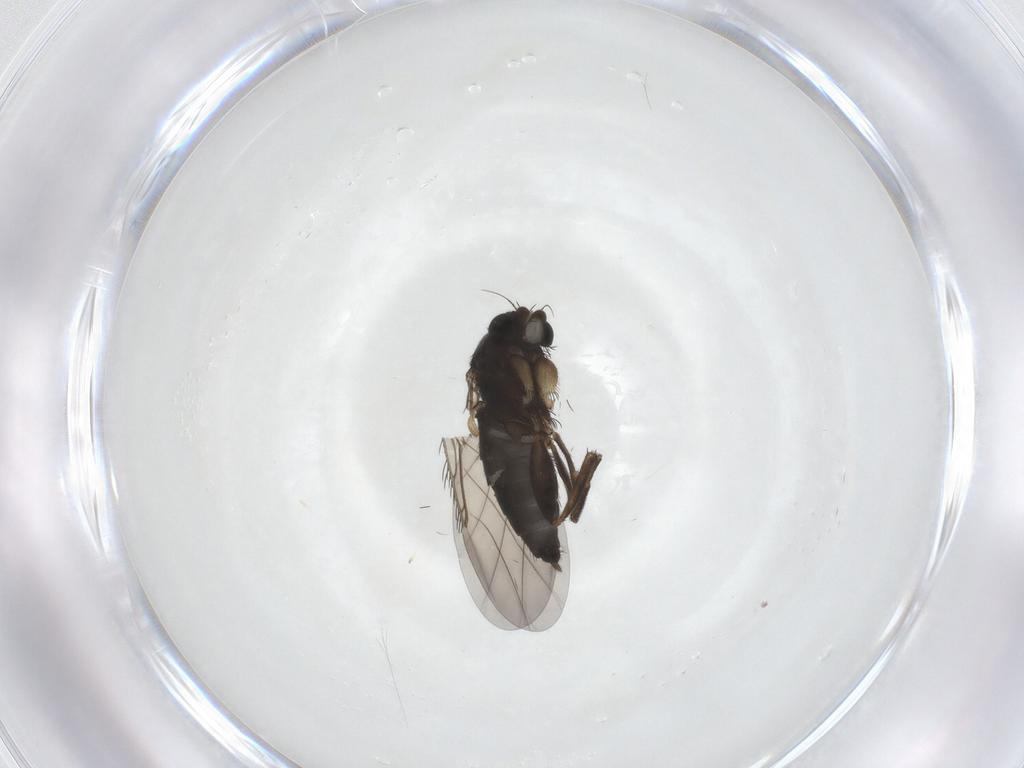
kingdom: Animalia
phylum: Arthropoda
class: Insecta
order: Diptera
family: Phoridae
